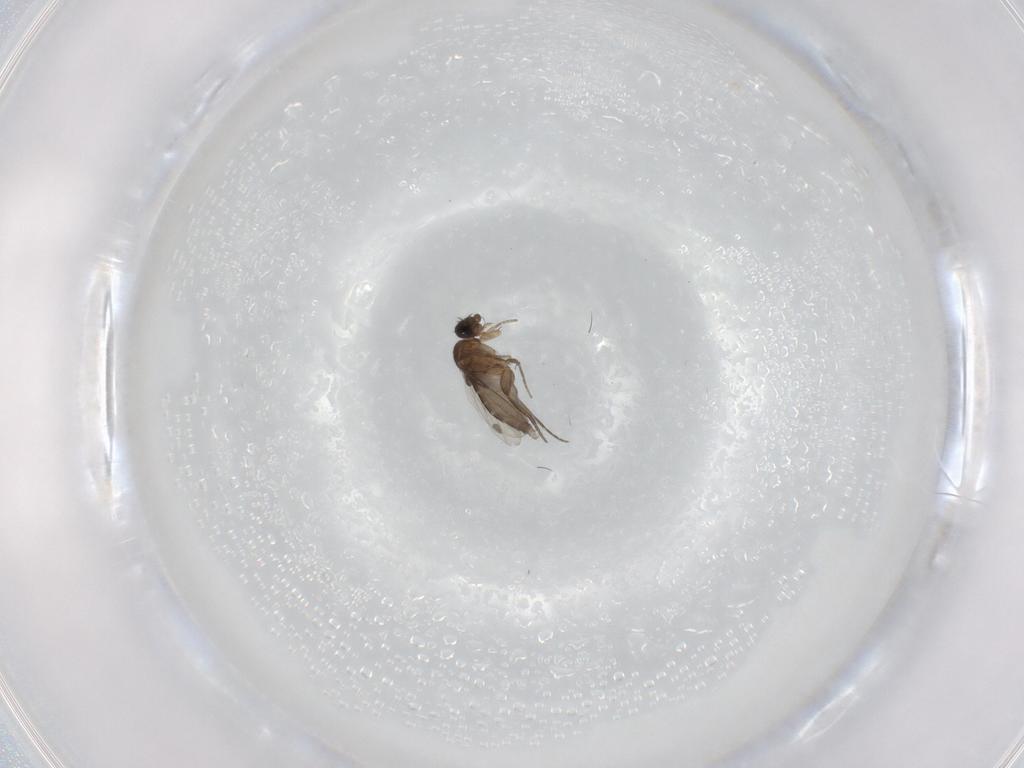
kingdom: Animalia
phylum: Arthropoda
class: Insecta
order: Diptera
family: Phoridae
